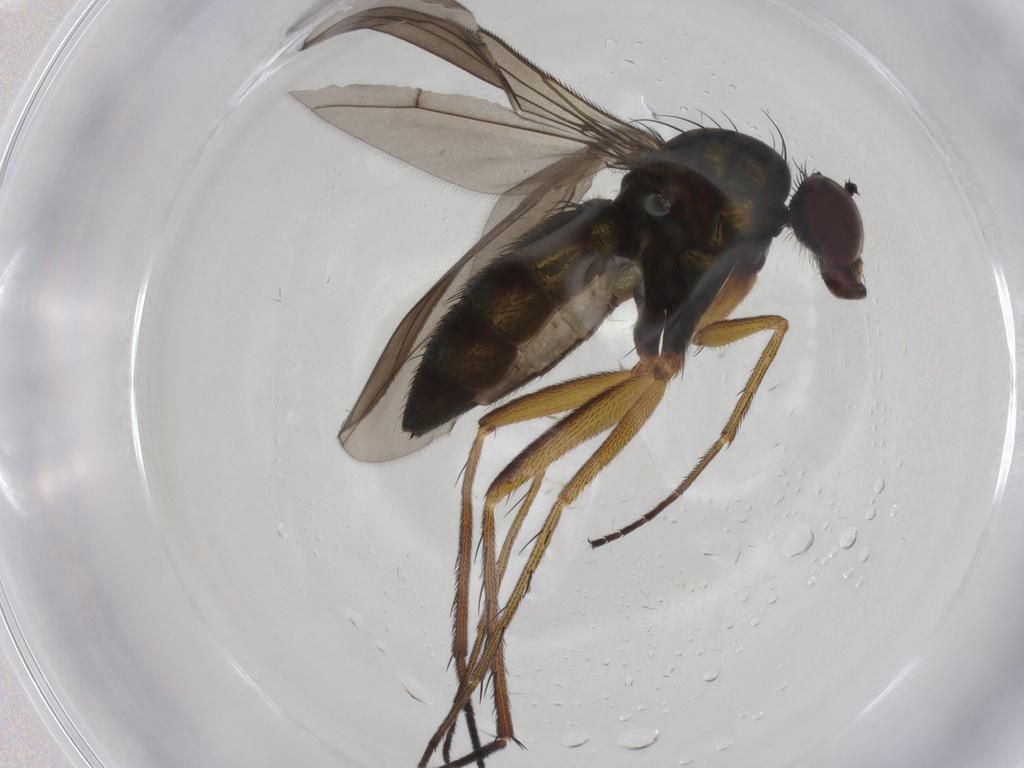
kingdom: Animalia
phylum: Arthropoda
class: Insecta
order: Diptera
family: Dolichopodidae
